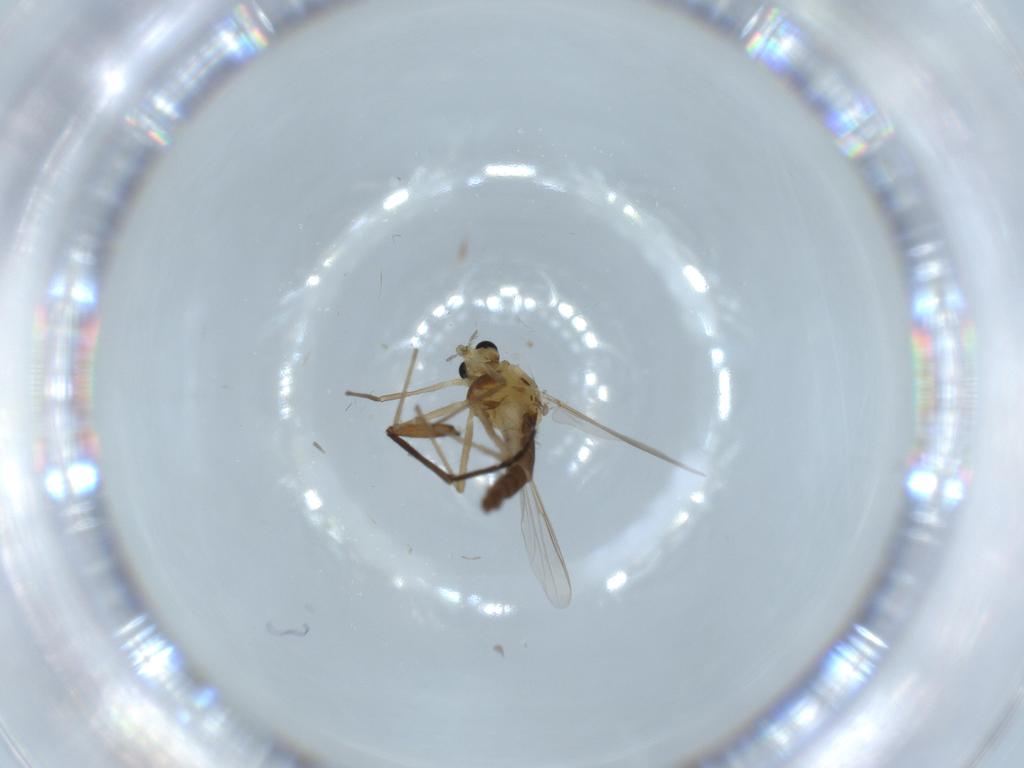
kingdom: Animalia
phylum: Arthropoda
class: Insecta
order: Diptera
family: Chironomidae
